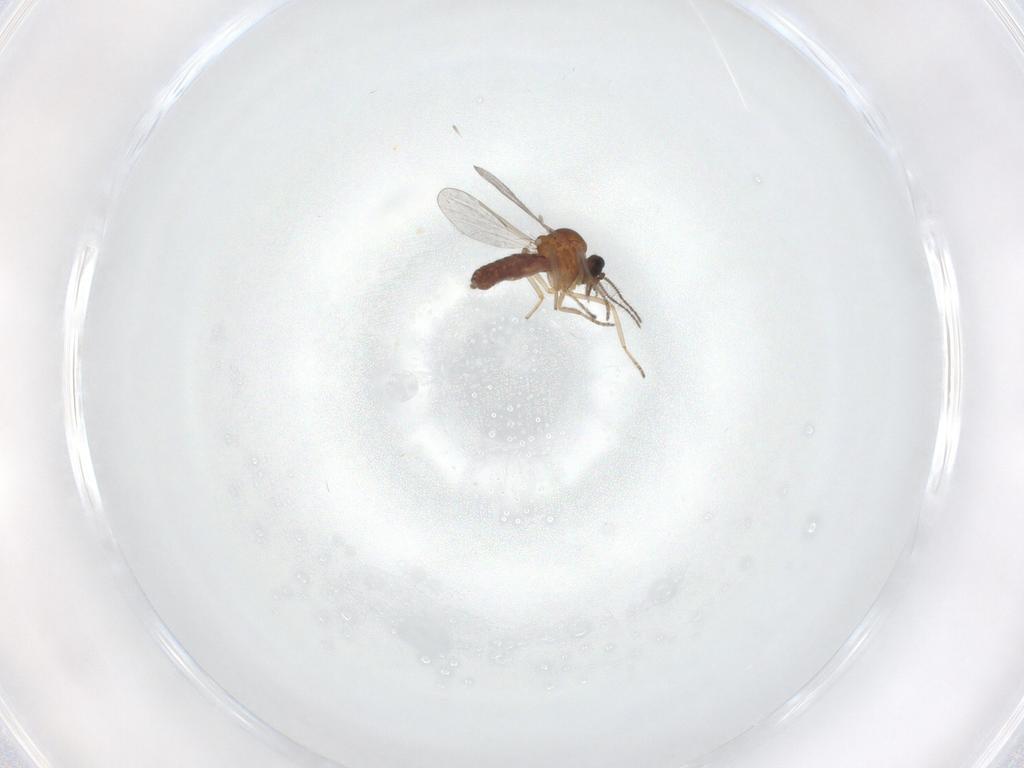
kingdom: Animalia
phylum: Arthropoda
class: Insecta
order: Diptera
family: Ceratopogonidae
